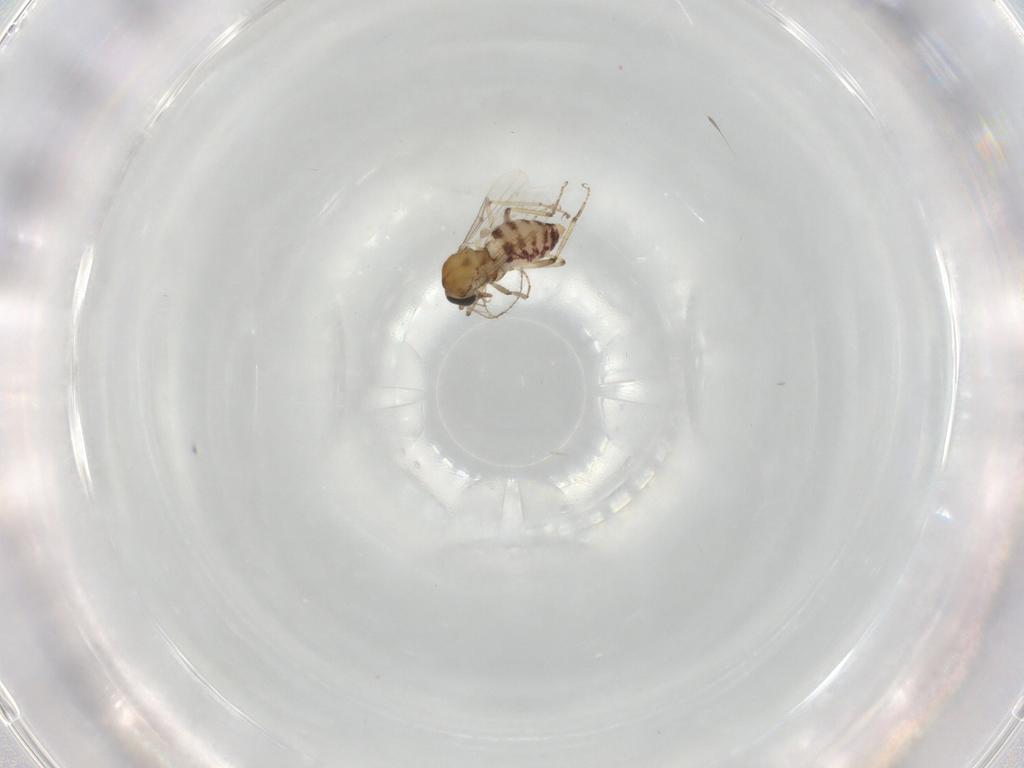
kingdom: Animalia
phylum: Arthropoda
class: Insecta
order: Diptera
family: Ceratopogonidae
